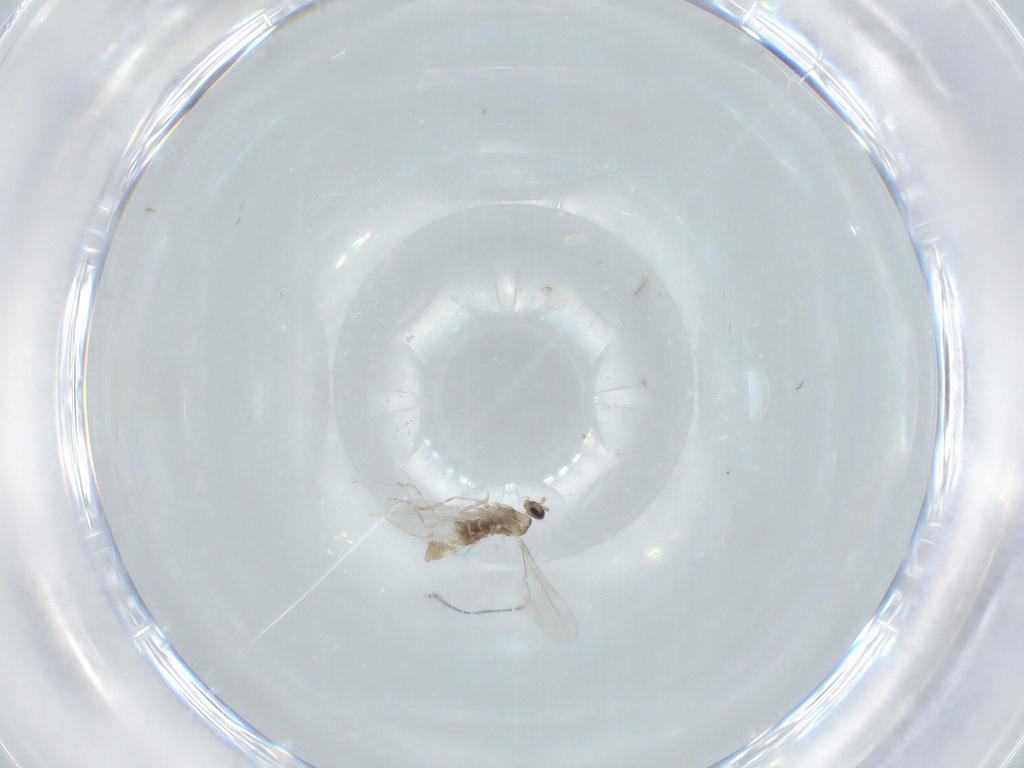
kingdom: Animalia
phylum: Arthropoda
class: Insecta
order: Diptera
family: Cecidomyiidae
